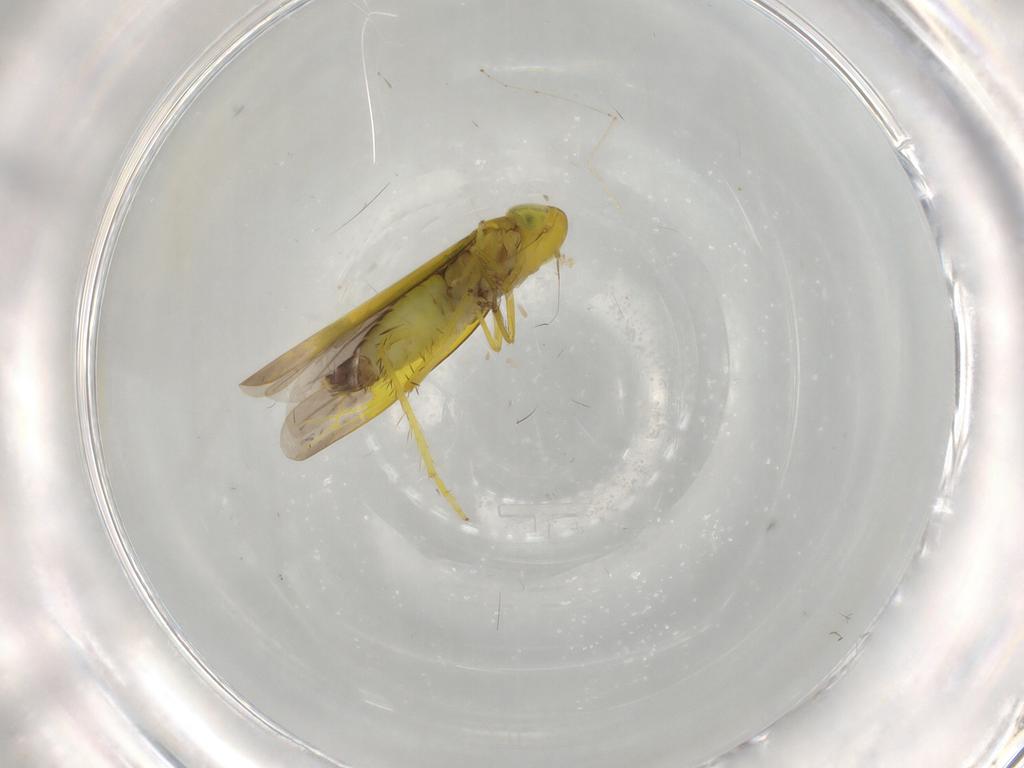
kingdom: Animalia
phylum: Arthropoda
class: Insecta
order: Hemiptera
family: Cicadellidae
